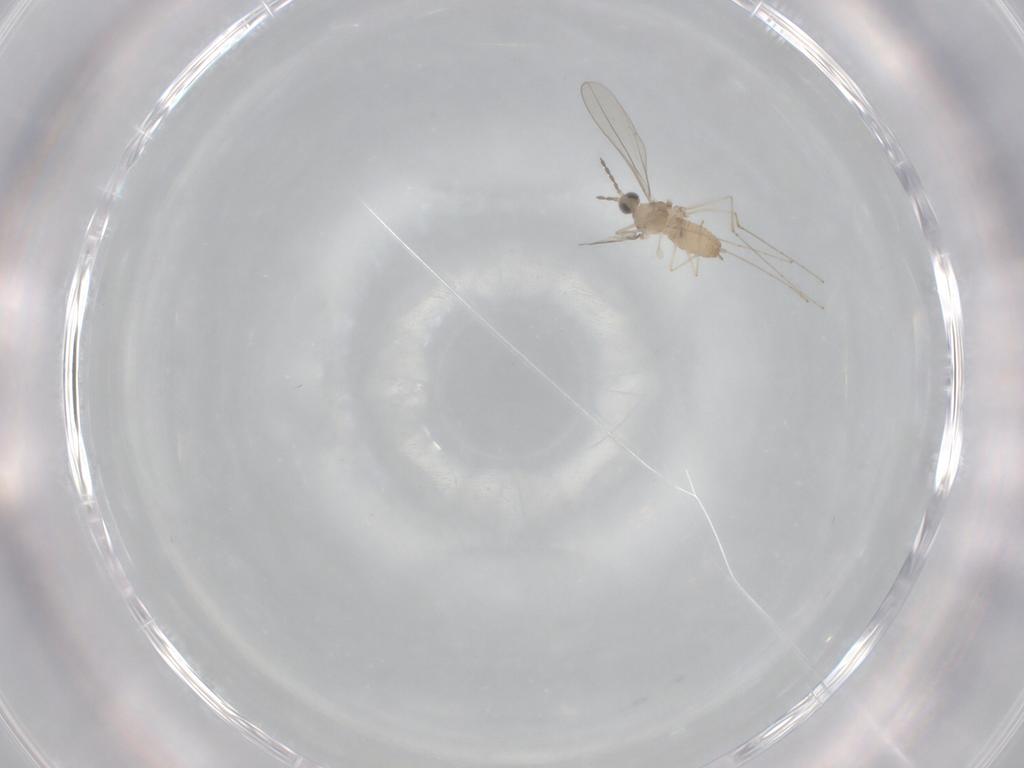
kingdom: Animalia
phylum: Arthropoda
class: Insecta
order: Diptera
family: Cecidomyiidae
